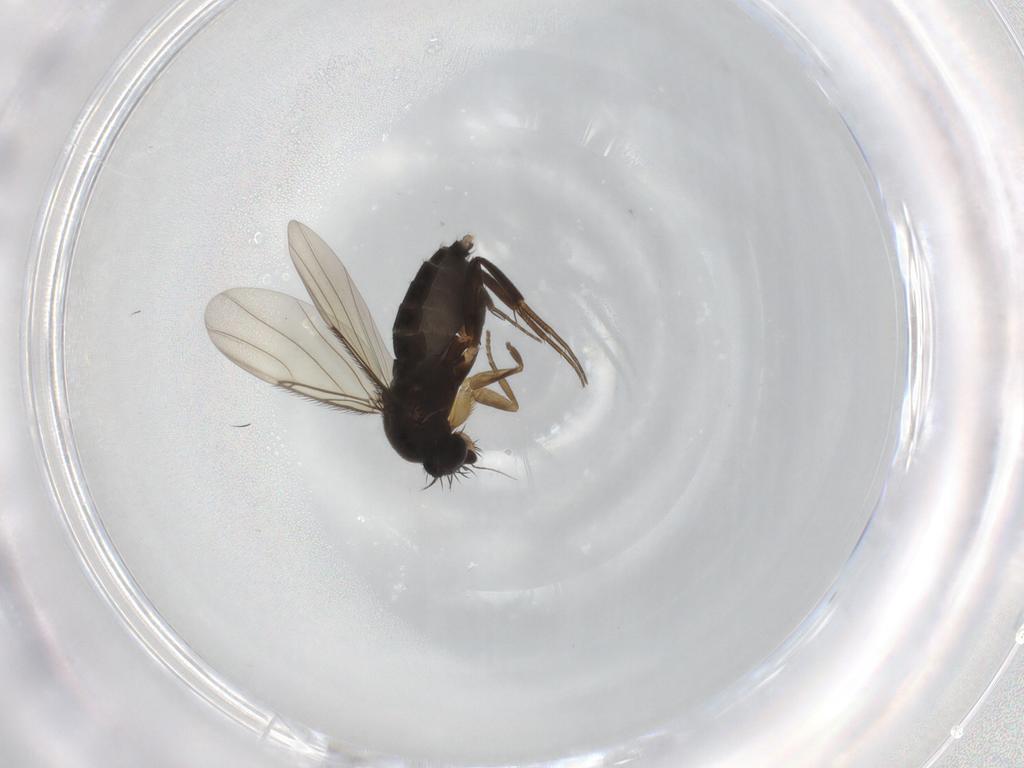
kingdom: Animalia
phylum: Arthropoda
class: Insecta
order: Diptera
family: Phoridae
